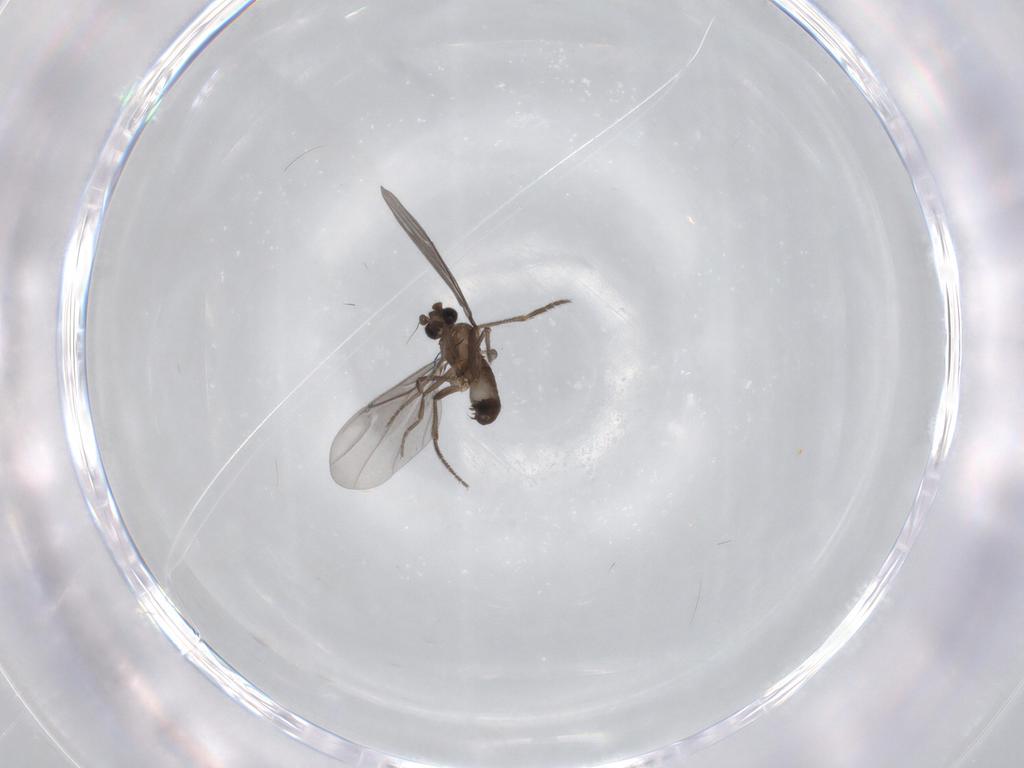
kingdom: Animalia
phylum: Arthropoda
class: Insecta
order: Diptera
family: Phoridae
